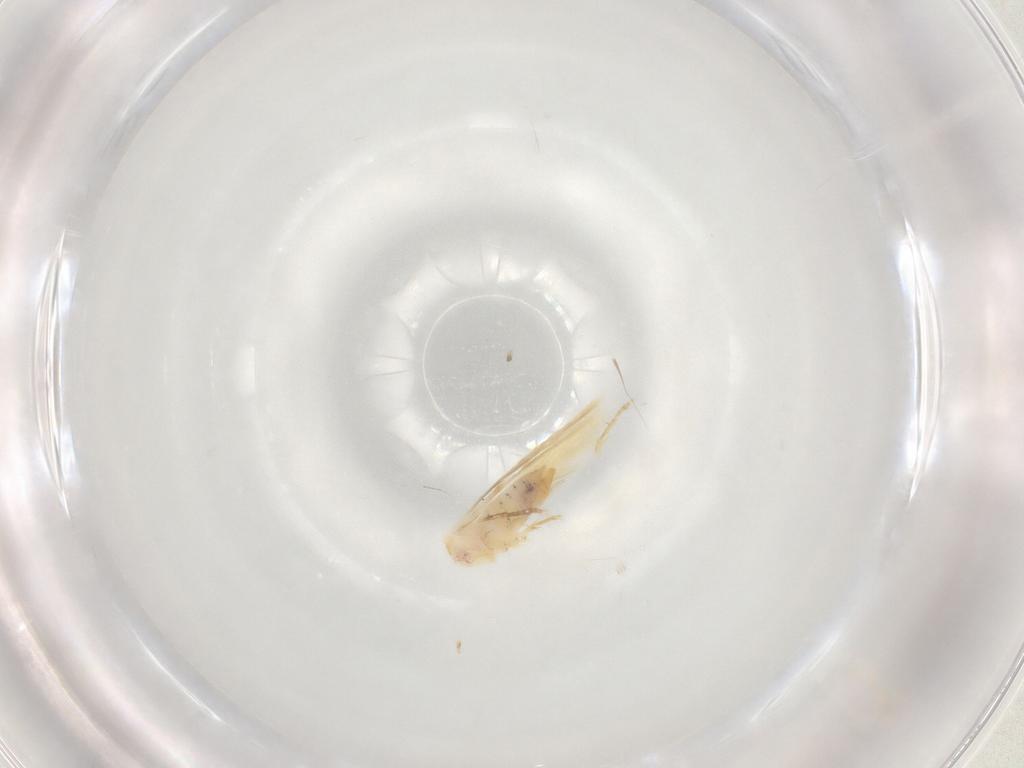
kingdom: Animalia
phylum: Arthropoda
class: Insecta
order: Lepidoptera
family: Nepticulidae
